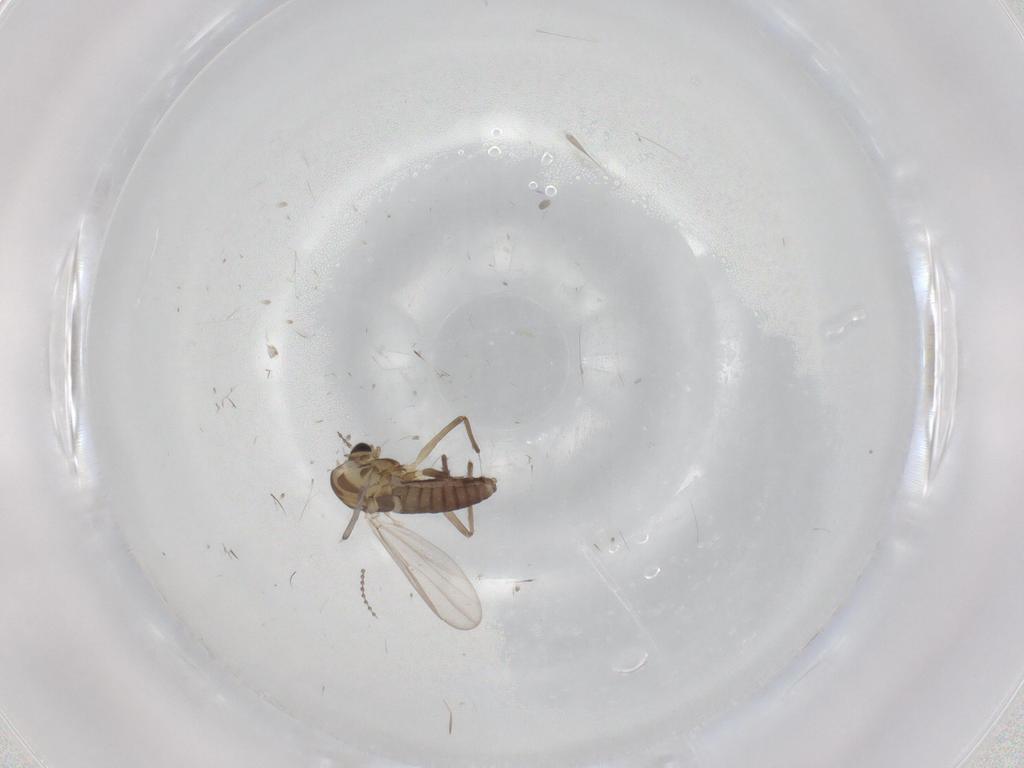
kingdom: Animalia
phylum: Arthropoda
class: Insecta
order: Diptera
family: Chironomidae
